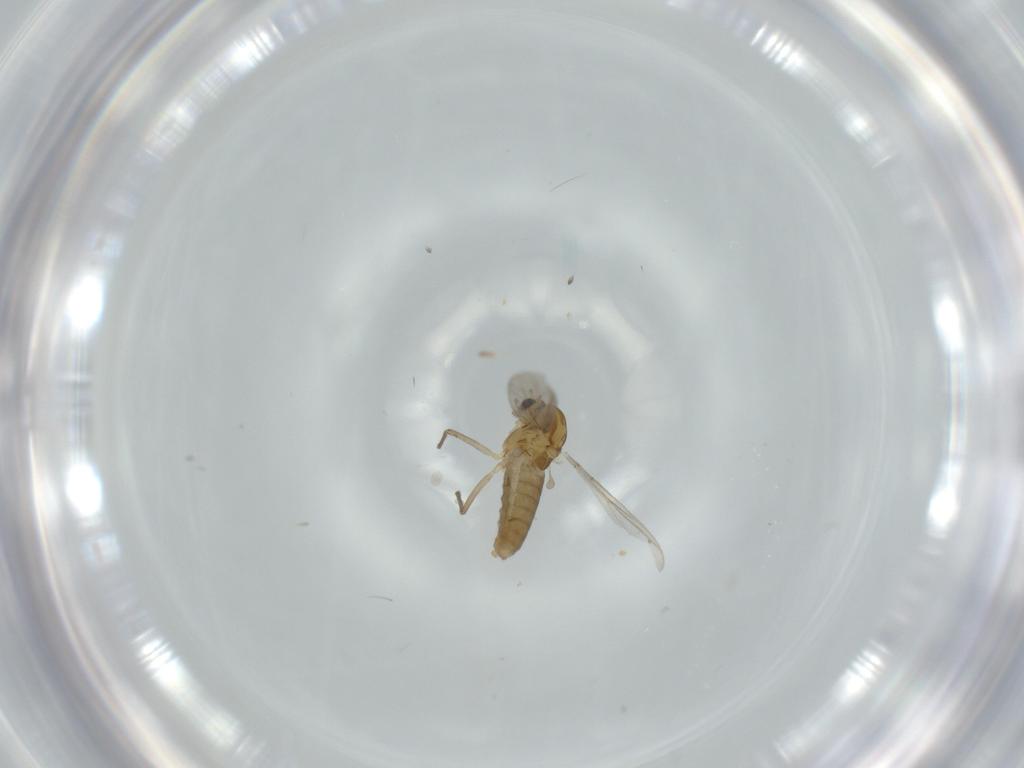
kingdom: Animalia
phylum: Arthropoda
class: Insecta
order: Diptera
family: Chironomidae
